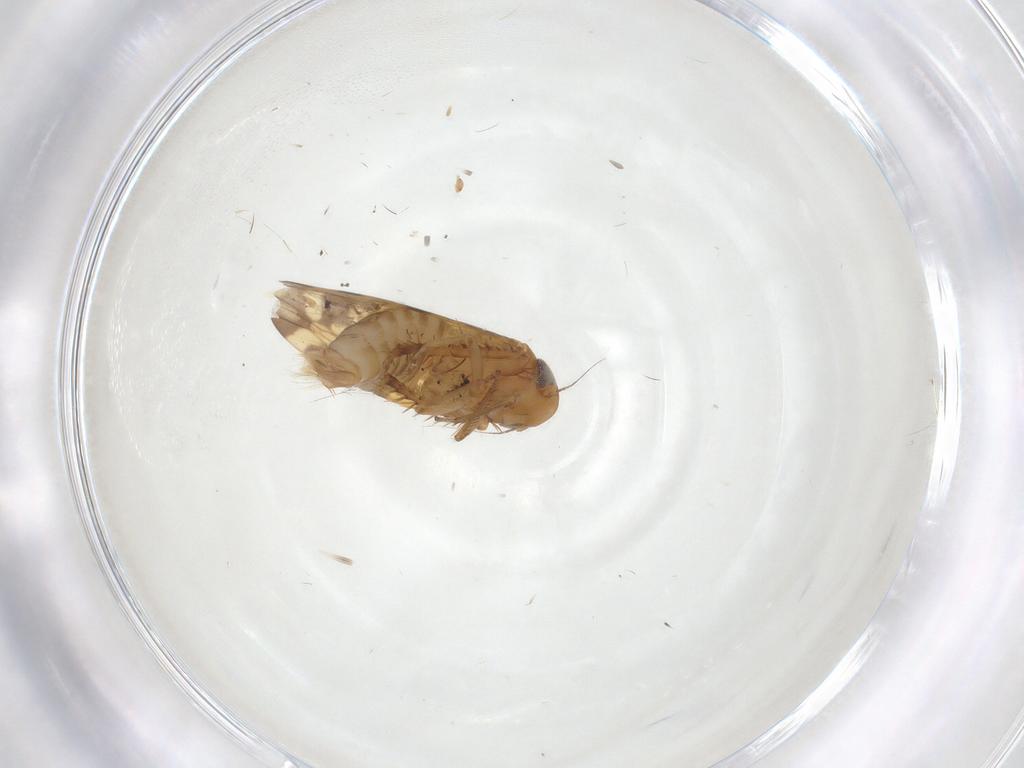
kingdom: Animalia
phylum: Arthropoda
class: Insecta
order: Hemiptera
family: Cicadellidae
